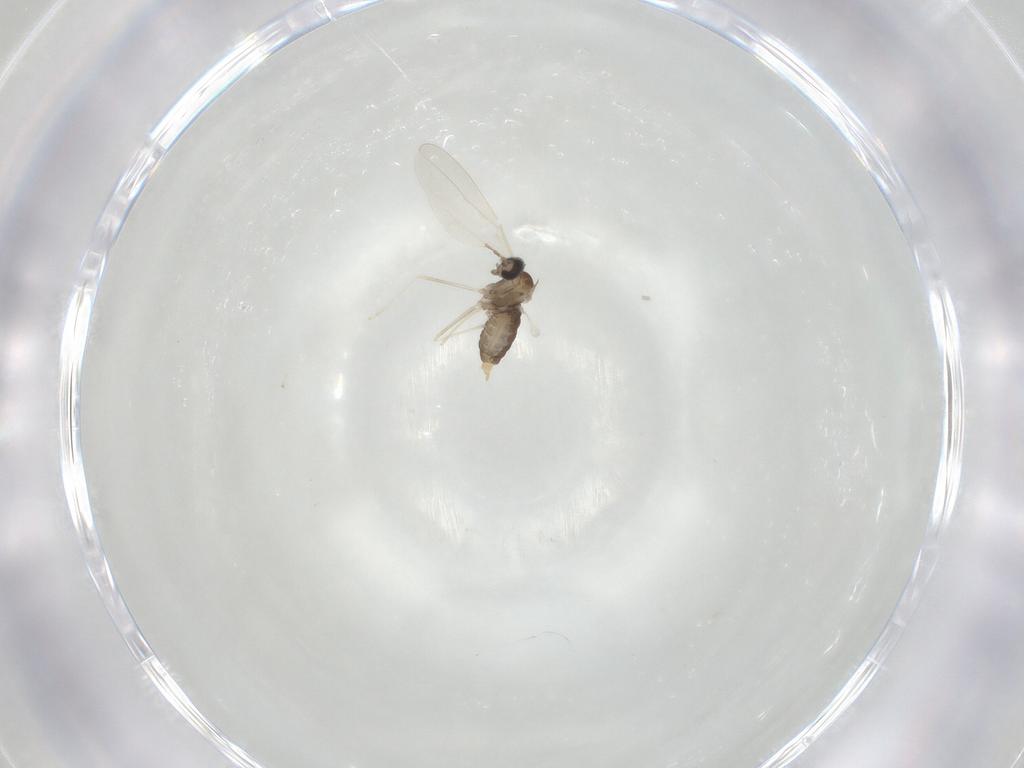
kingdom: Animalia
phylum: Arthropoda
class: Insecta
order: Diptera
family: Cecidomyiidae
